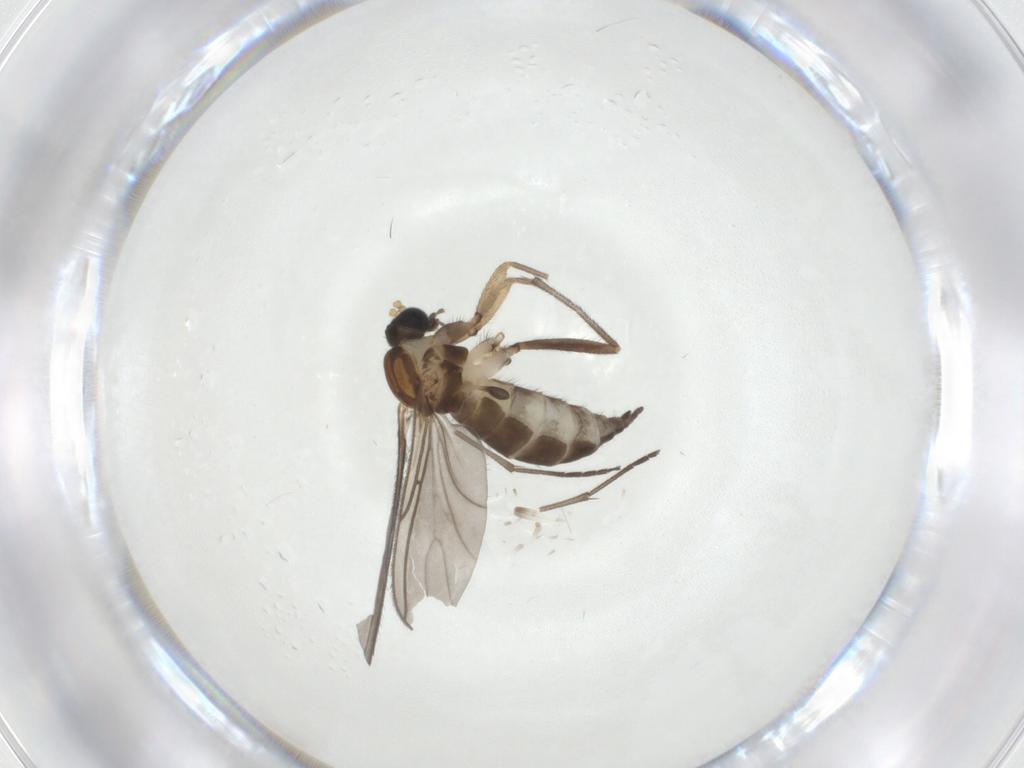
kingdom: Animalia
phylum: Arthropoda
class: Insecta
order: Diptera
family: Sciaridae
